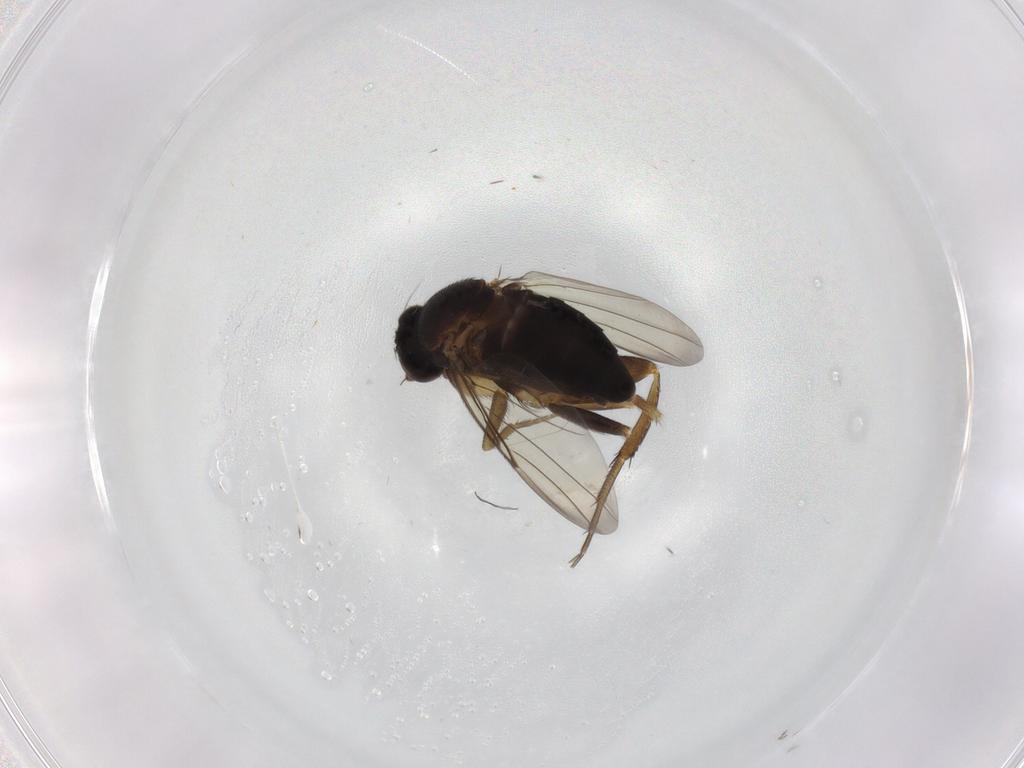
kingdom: Animalia
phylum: Arthropoda
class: Insecta
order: Diptera
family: Phoridae
